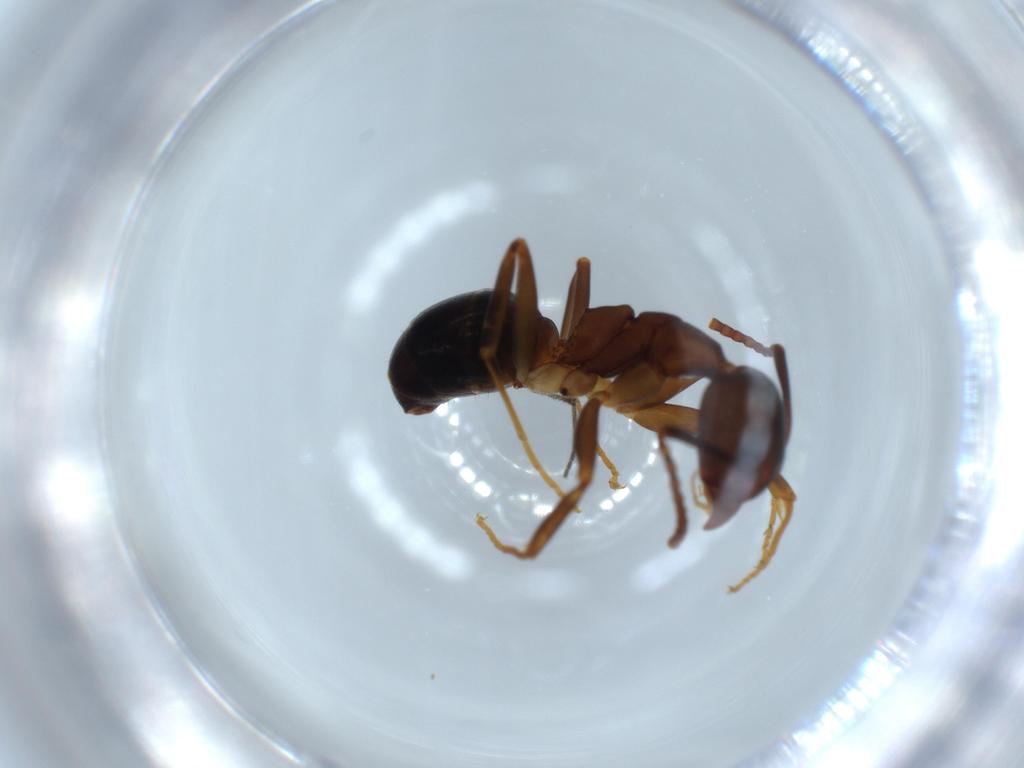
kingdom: Animalia
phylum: Arthropoda
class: Insecta
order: Hymenoptera
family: Formicidae
